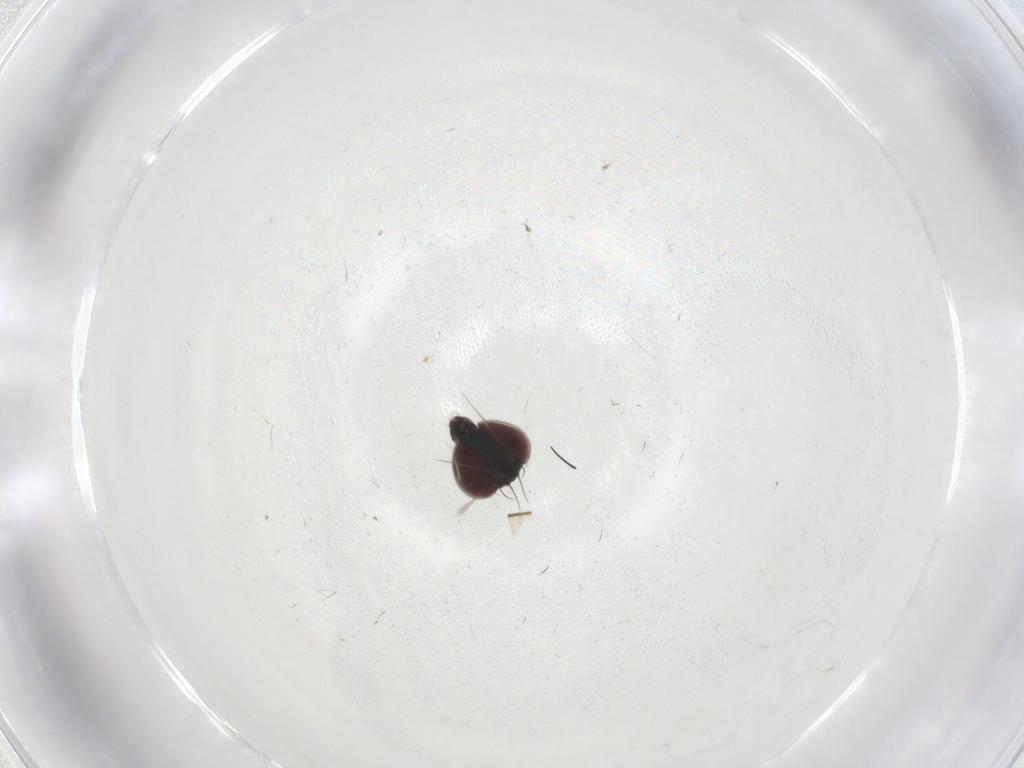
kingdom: Animalia
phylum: Arthropoda
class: Insecta
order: Diptera
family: Dolichopodidae
